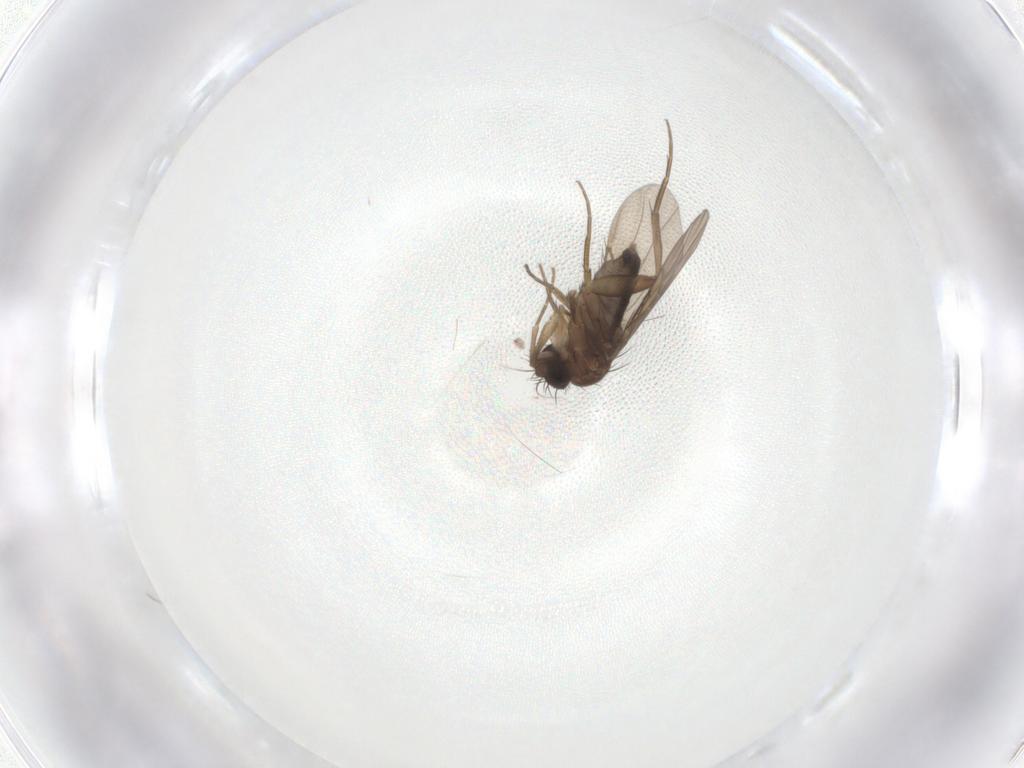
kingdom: Animalia
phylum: Arthropoda
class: Insecta
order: Diptera
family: Phoridae
